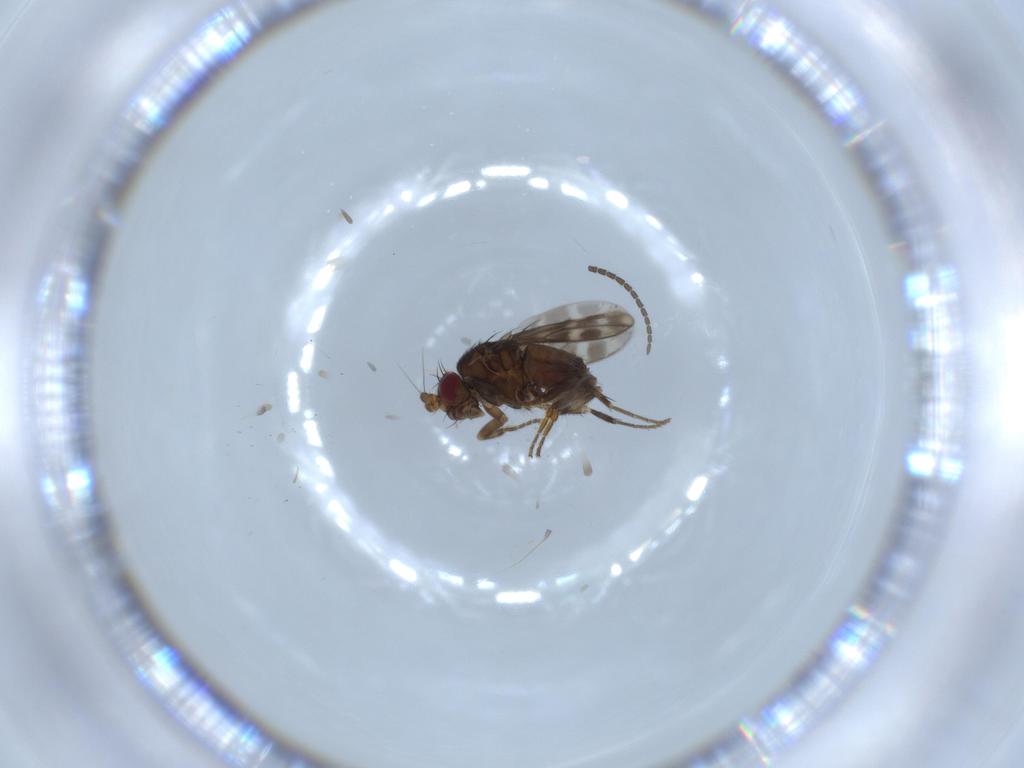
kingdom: Animalia
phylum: Arthropoda
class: Insecta
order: Diptera
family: Sphaeroceridae
